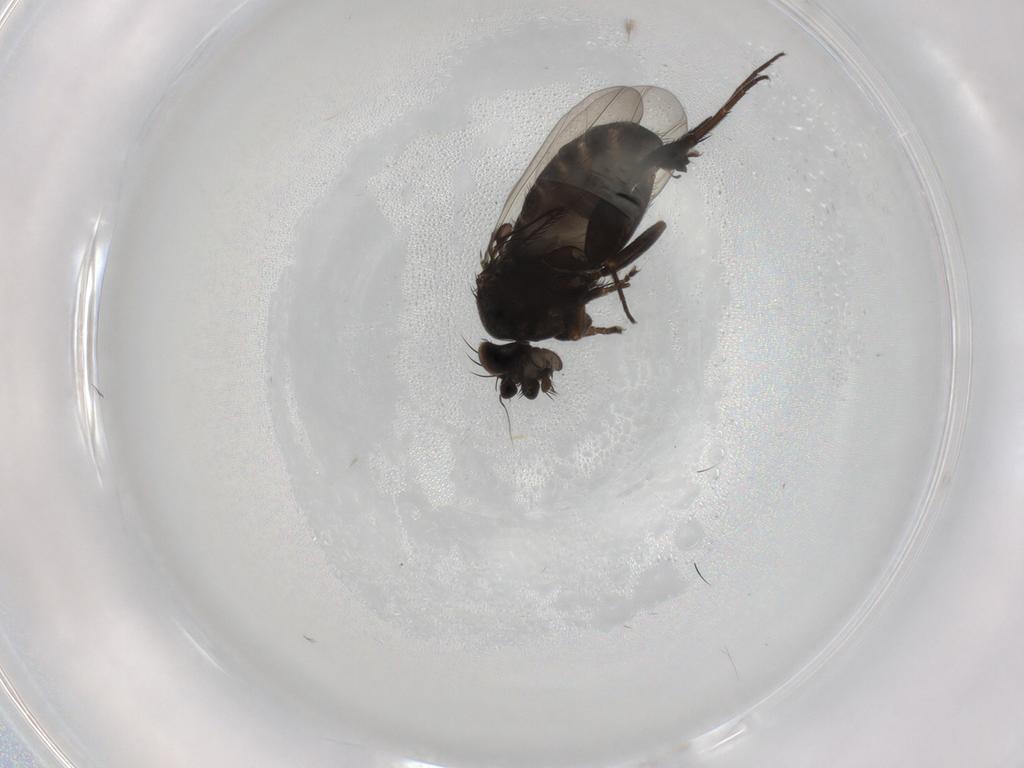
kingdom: Animalia
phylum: Arthropoda
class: Insecta
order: Diptera
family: Phoridae
